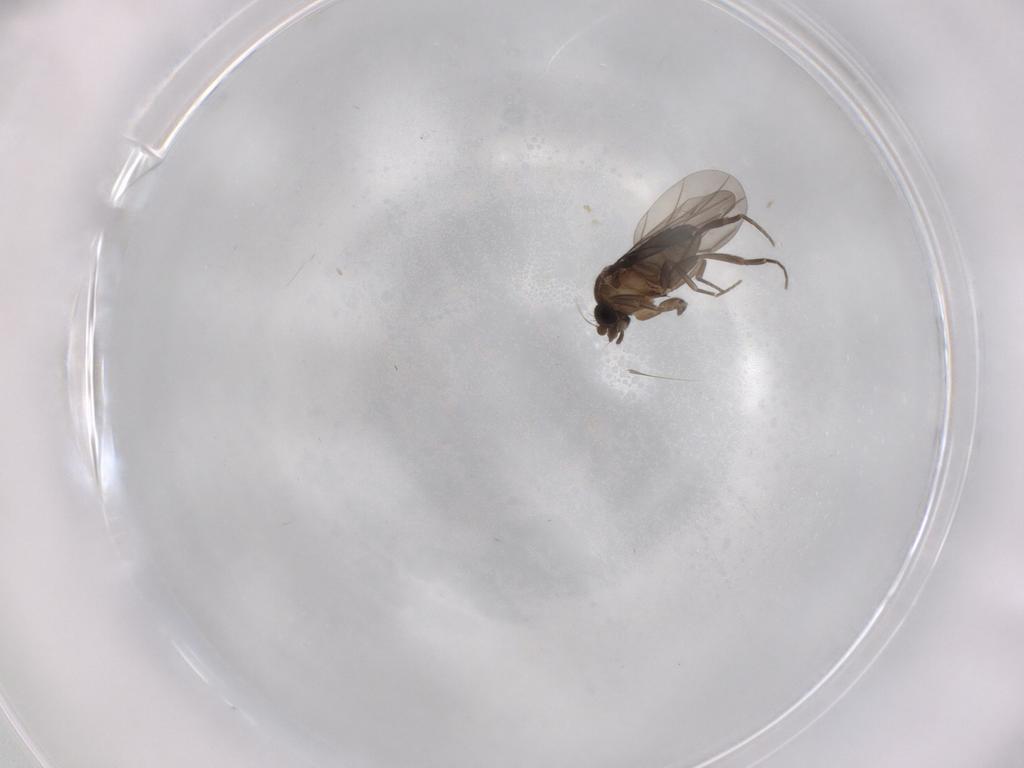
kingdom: Animalia
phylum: Arthropoda
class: Insecta
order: Diptera
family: Phoridae
